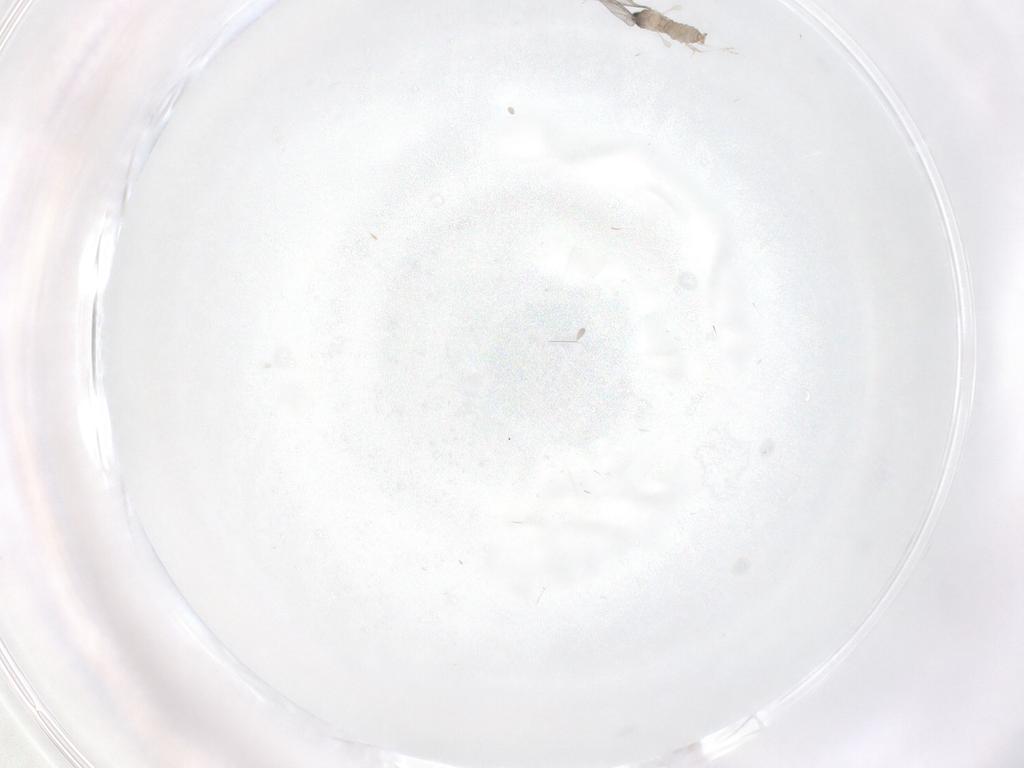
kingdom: Animalia
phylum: Arthropoda
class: Insecta
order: Diptera
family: Cecidomyiidae
